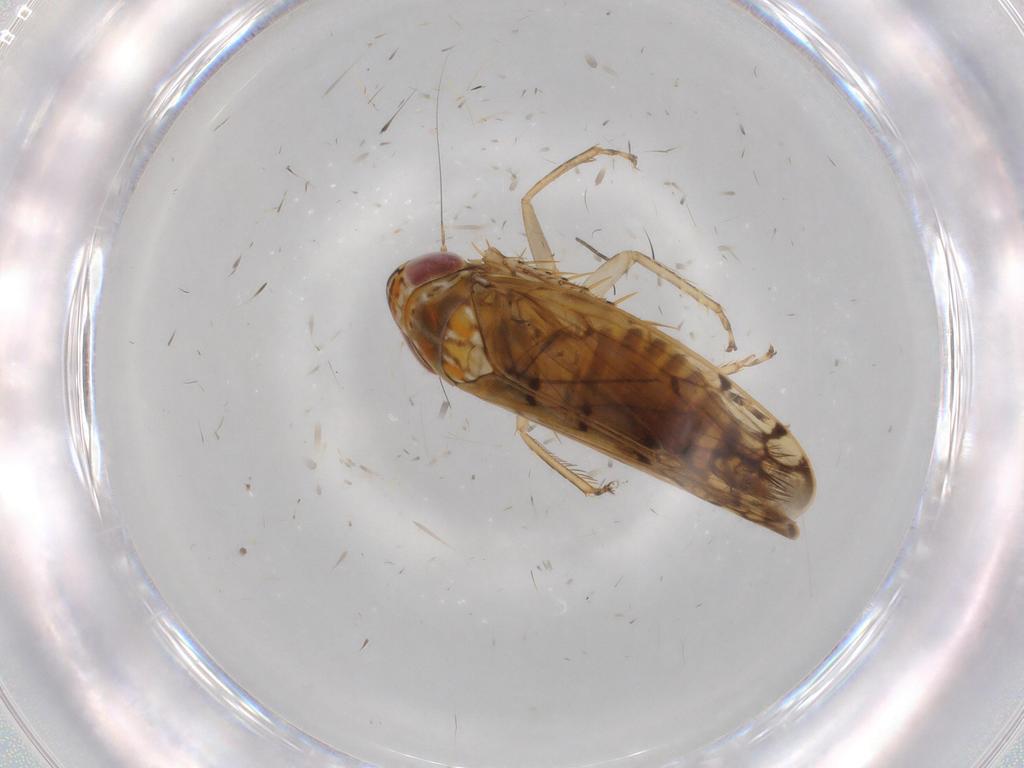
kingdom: Animalia
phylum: Arthropoda
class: Insecta
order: Hemiptera
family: Cicadellidae
